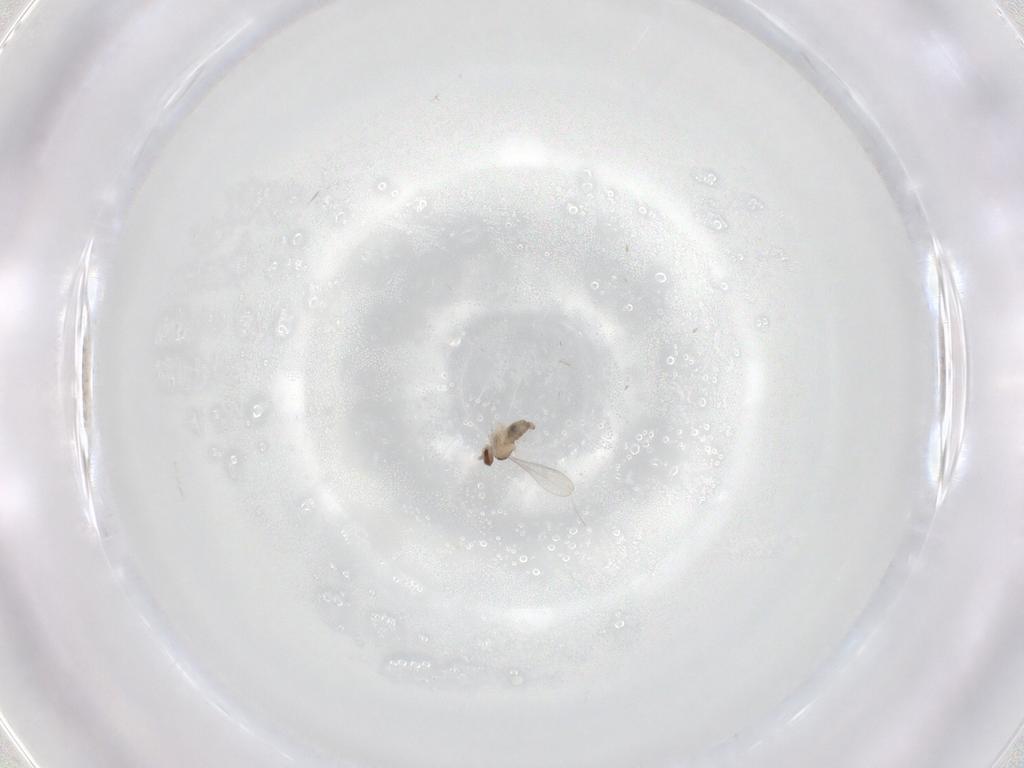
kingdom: Animalia
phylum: Arthropoda
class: Insecta
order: Diptera
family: Cecidomyiidae
